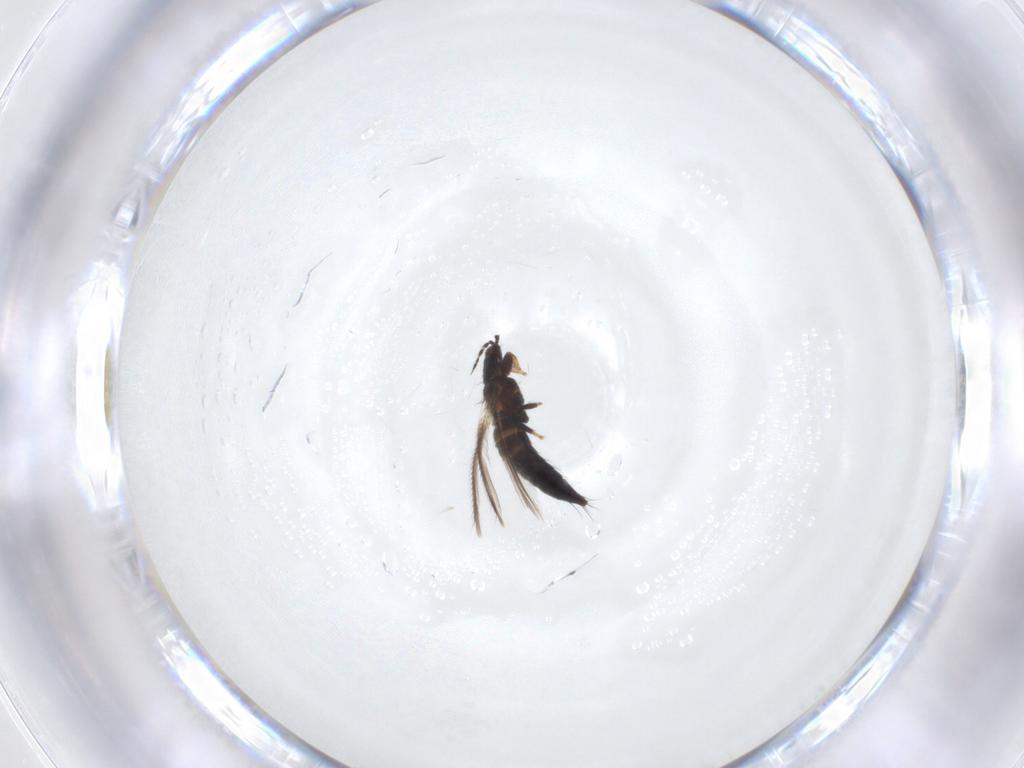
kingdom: Animalia
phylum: Arthropoda
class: Insecta
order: Thysanoptera
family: Thripidae
